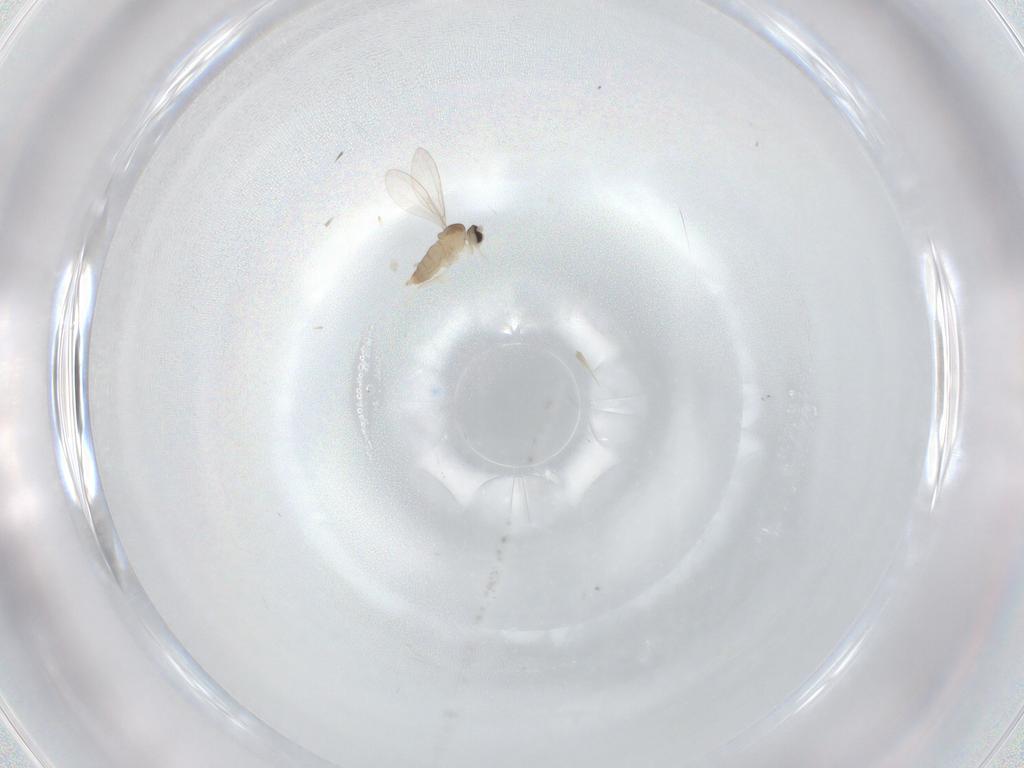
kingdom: Animalia
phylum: Arthropoda
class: Insecta
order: Diptera
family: Cecidomyiidae
